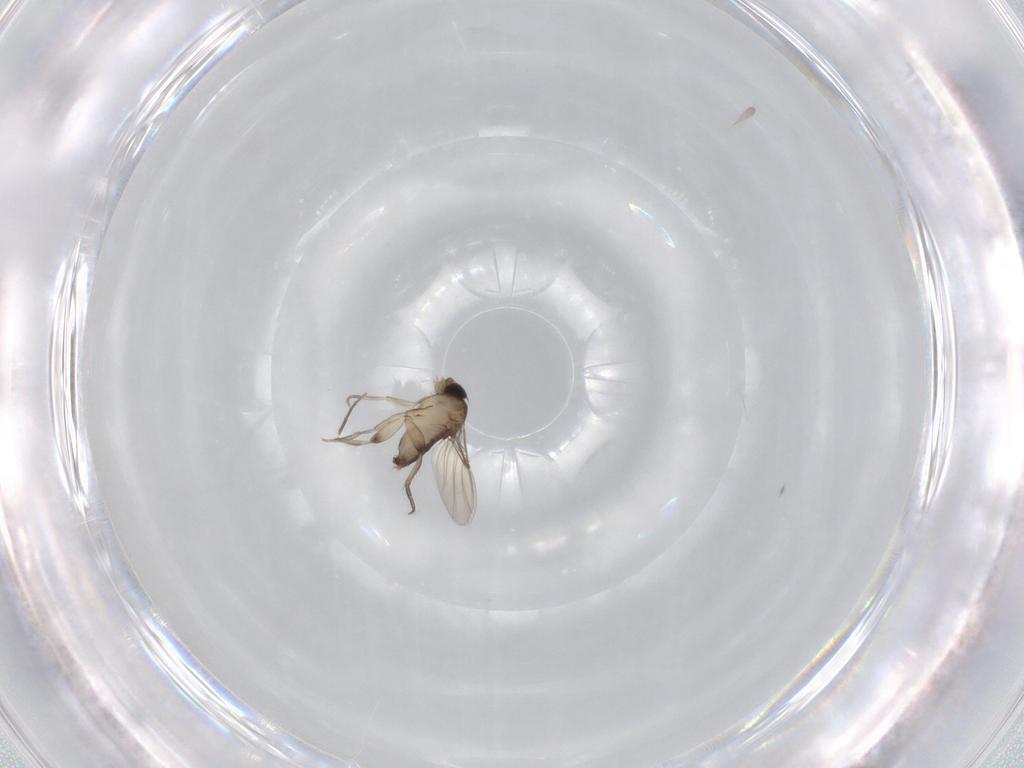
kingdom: Animalia
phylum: Arthropoda
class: Insecta
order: Diptera
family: Phoridae
